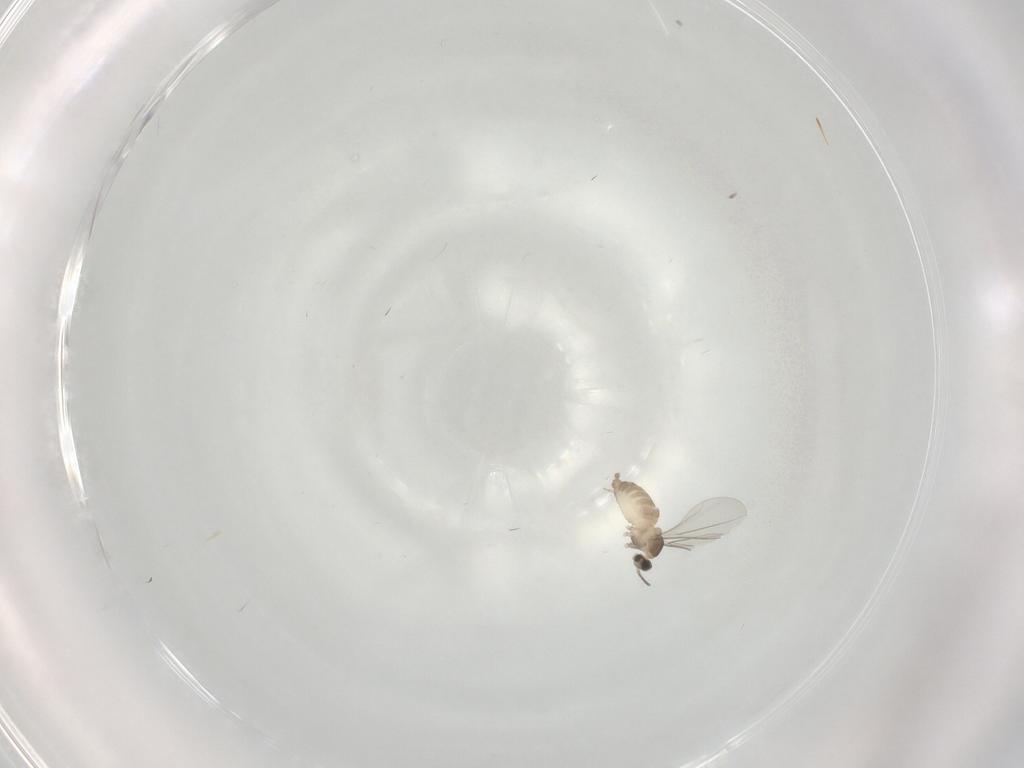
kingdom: Animalia
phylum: Arthropoda
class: Insecta
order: Diptera
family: Cecidomyiidae
